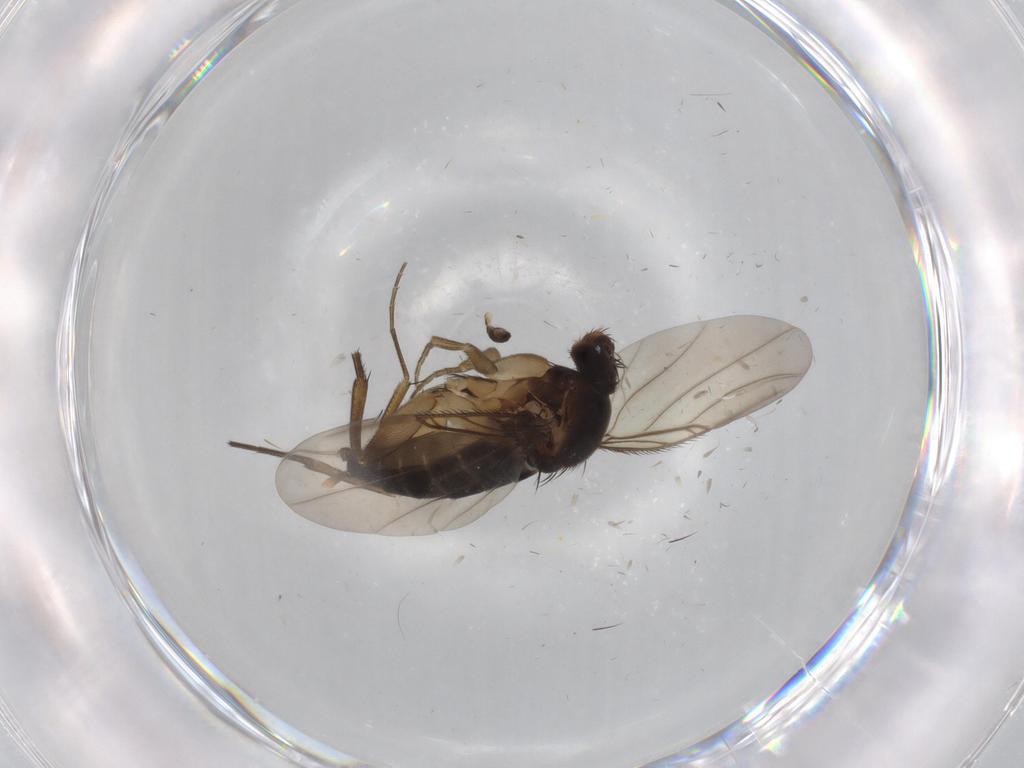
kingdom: Animalia
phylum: Arthropoda
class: Insecta
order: Diptera
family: Phoridae
